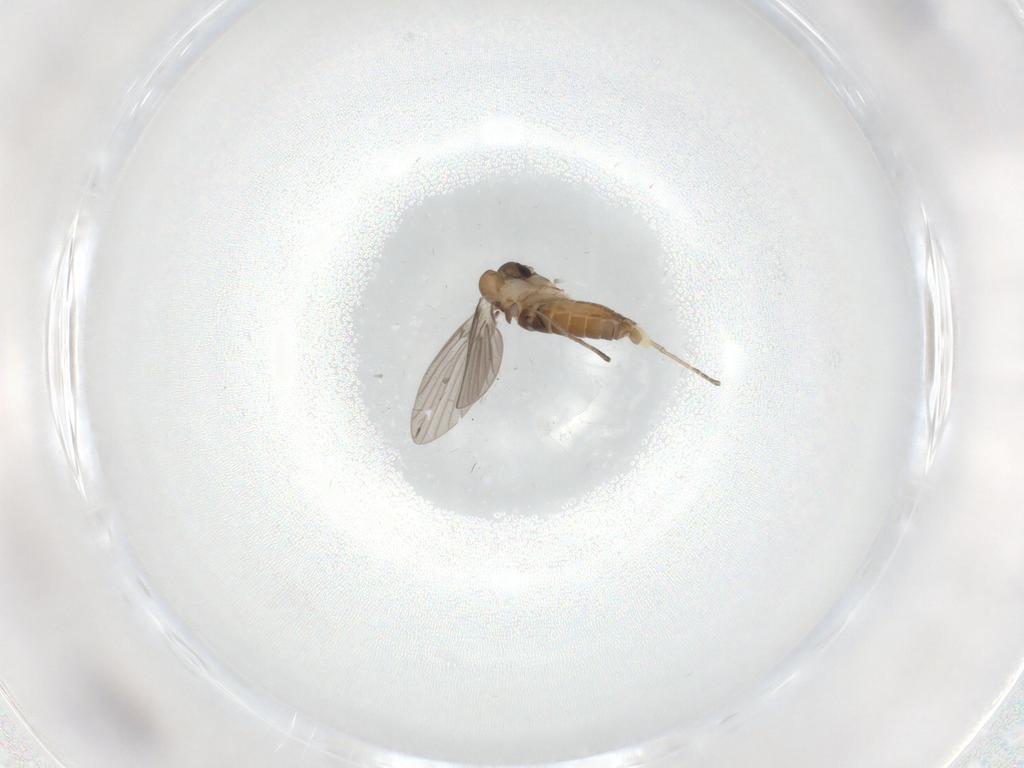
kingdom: Animalia
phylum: Arthropoda
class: Insecta
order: Diptera
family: Psychodidae
